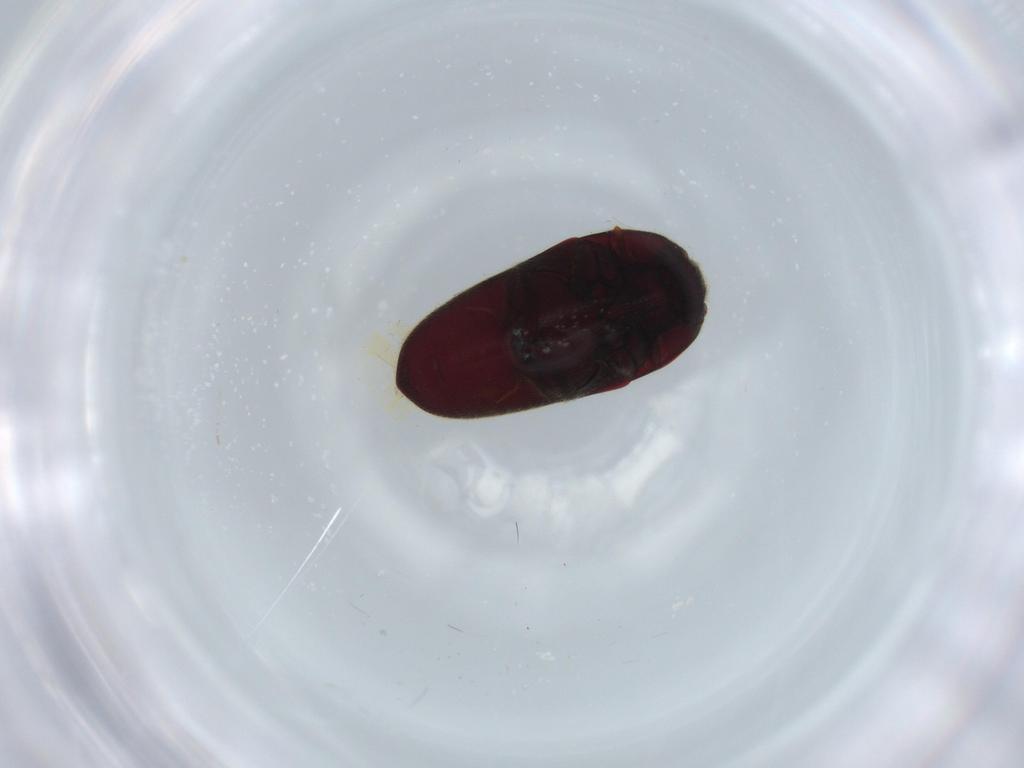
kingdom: Animalia
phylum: Arthropoda
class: Insecta
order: Coleoptera
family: Throscidae
